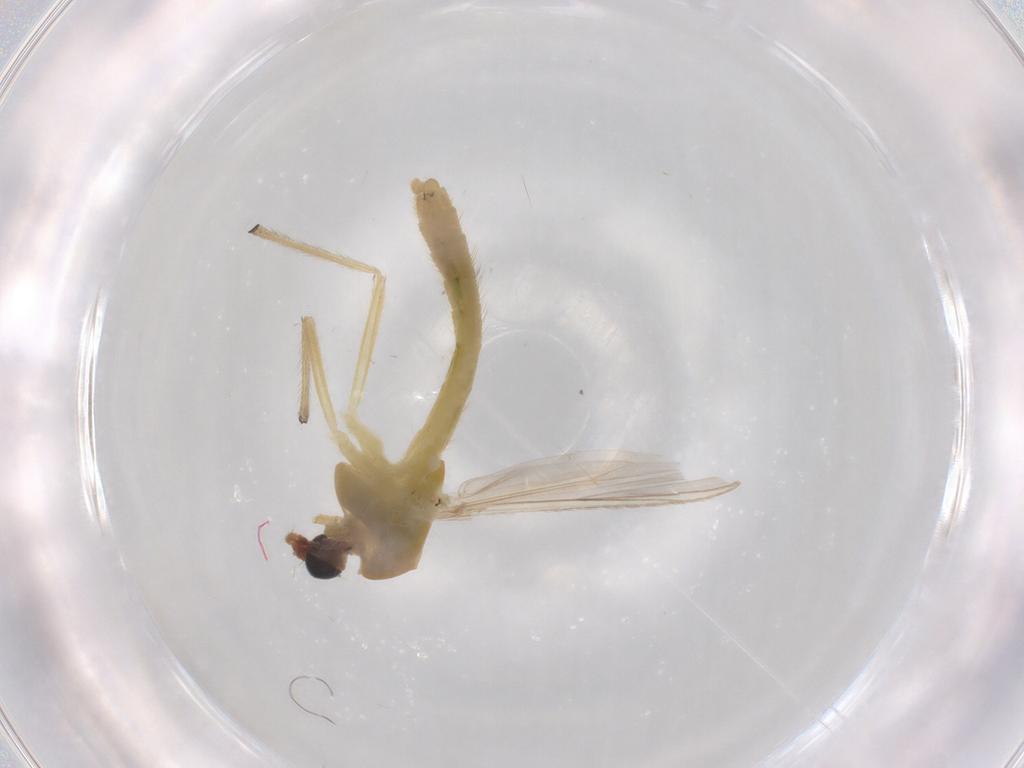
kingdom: Animalia
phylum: Arthropoda
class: Insecta
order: Diptera
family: Chironomidae
